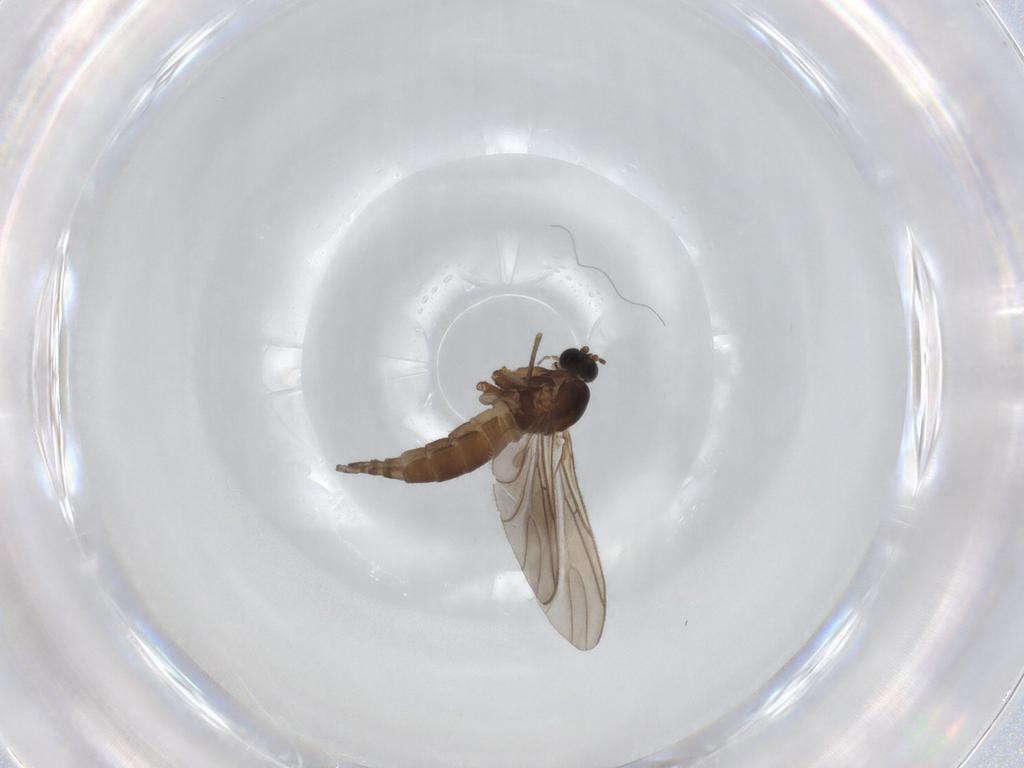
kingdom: Animalia
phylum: Arthropoda
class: Insecta
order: Diptera
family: Sciaridae
